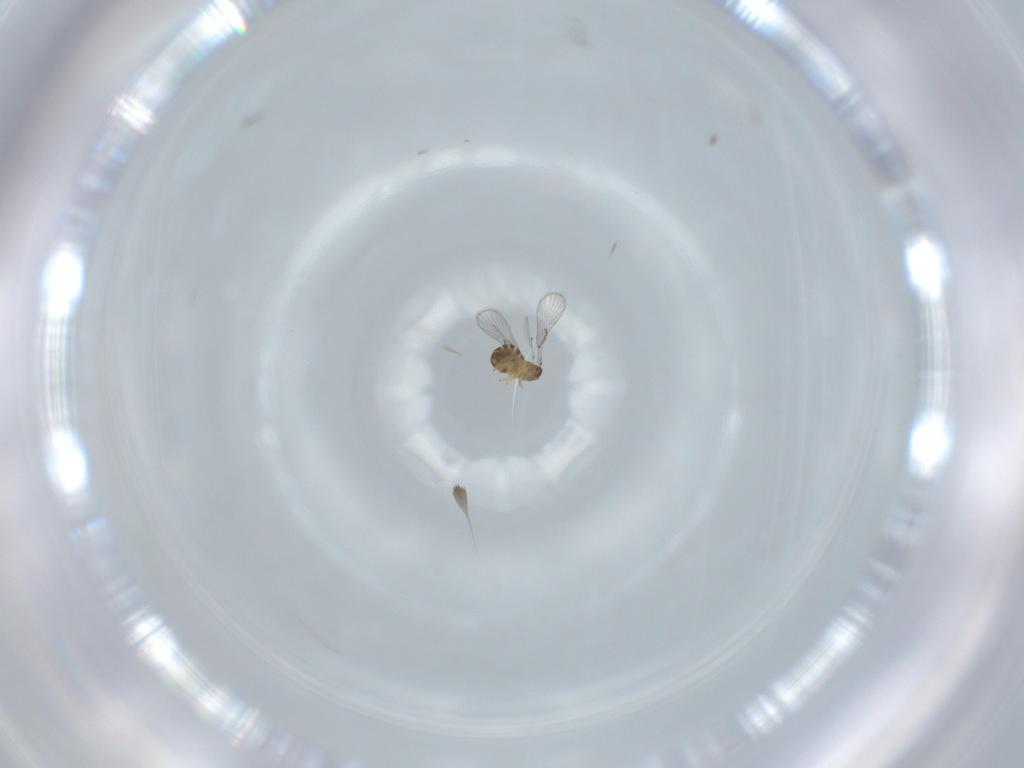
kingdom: Animalia
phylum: Arthropoda
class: Insecta
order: Hymenoptera
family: Trichogrammatidae
